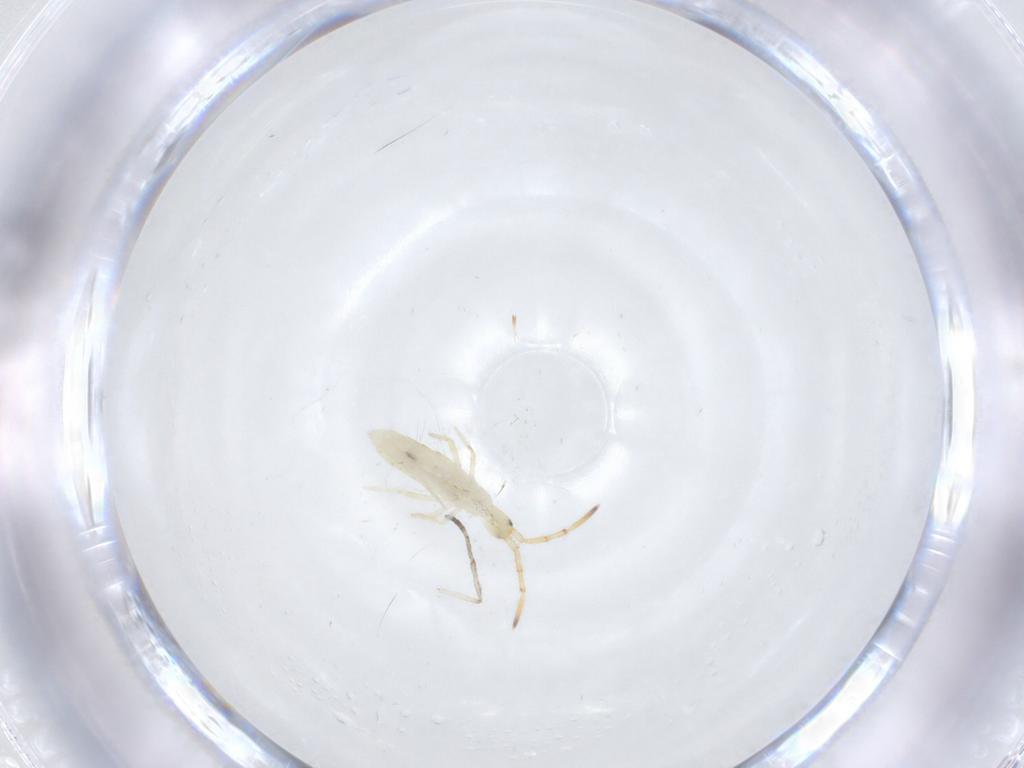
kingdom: Animalia
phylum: Arthropoda
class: Collembola
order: Entomobryomorpha
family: Entomobryidae
